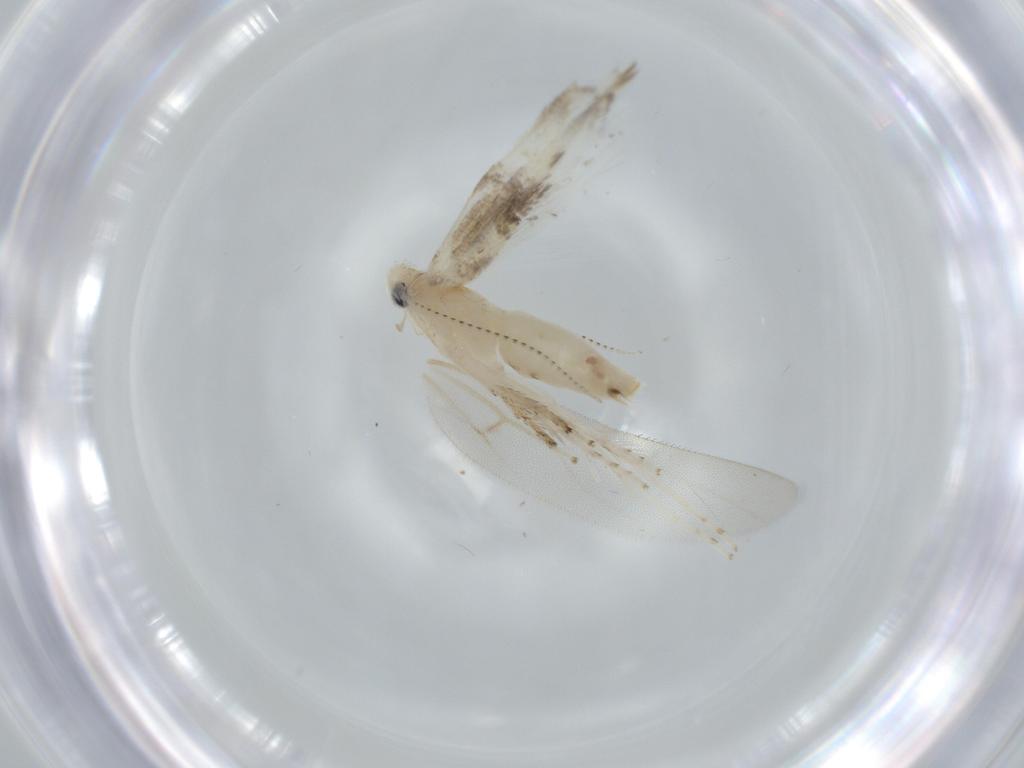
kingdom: Animalia
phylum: Arthropoda
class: Insecta
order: Lepidoptera
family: Gracillariidae
